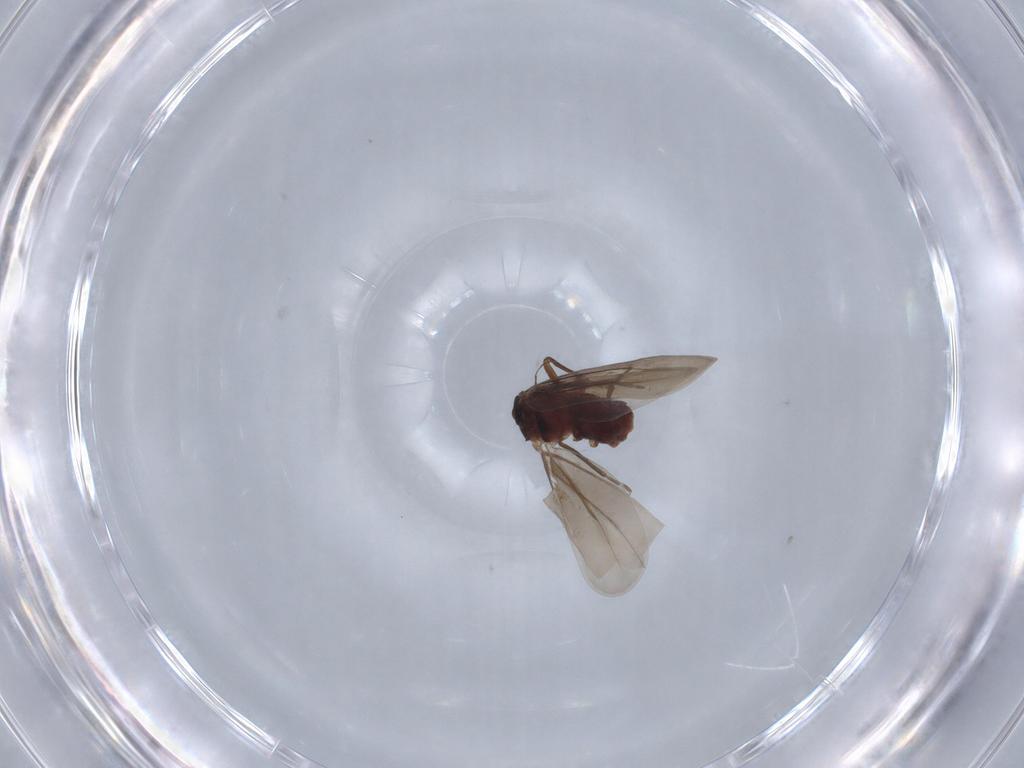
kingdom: Animalia
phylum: Arthropoda
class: Insecta
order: Hemiptera
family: Aleyrodidae
